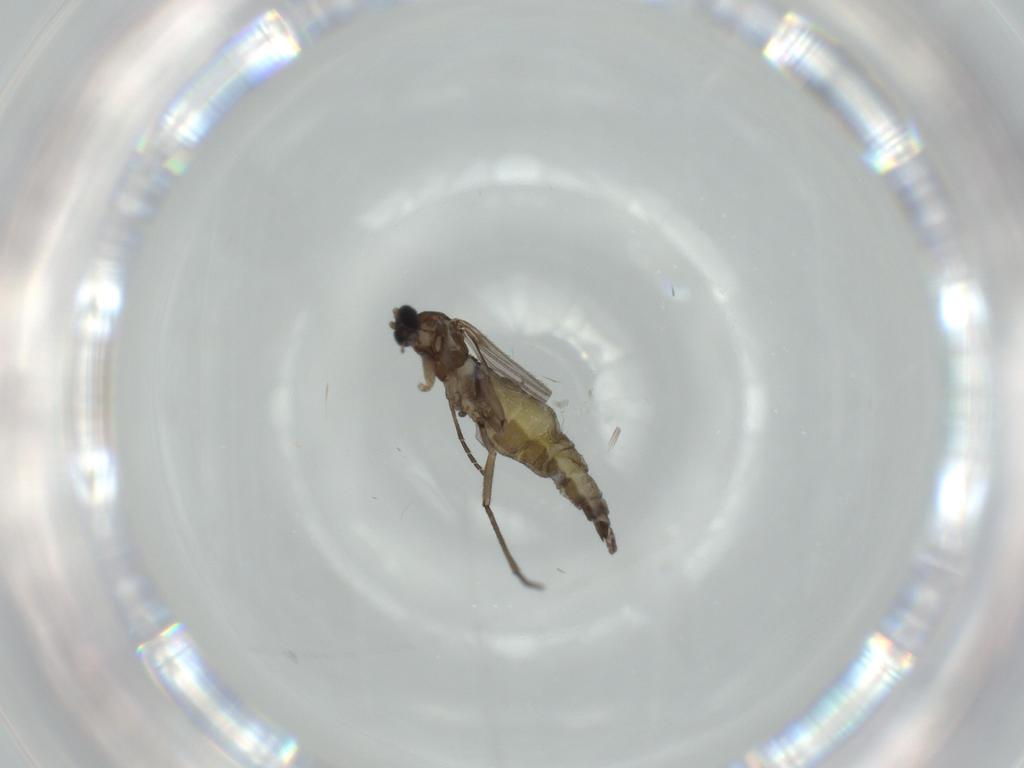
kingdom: Animalia
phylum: Arthropoda
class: Insecta
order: Diptera
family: Sciaridae
